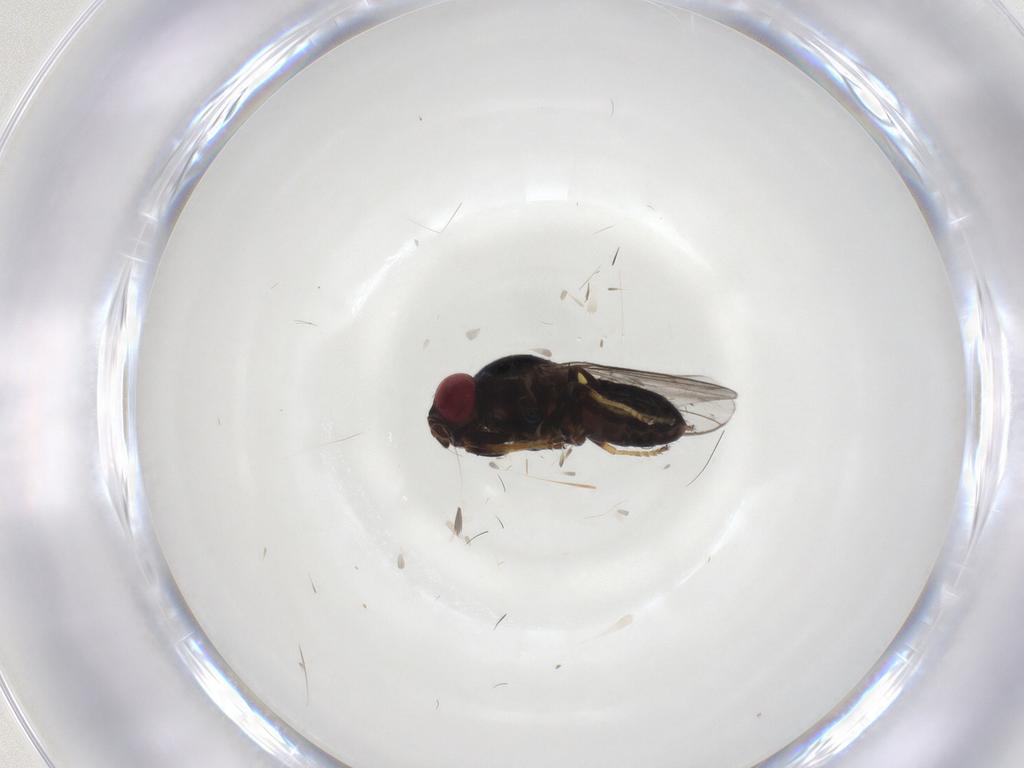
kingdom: Animalia
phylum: Arthropoda
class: Insecta
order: Diptera
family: Chloropidae
